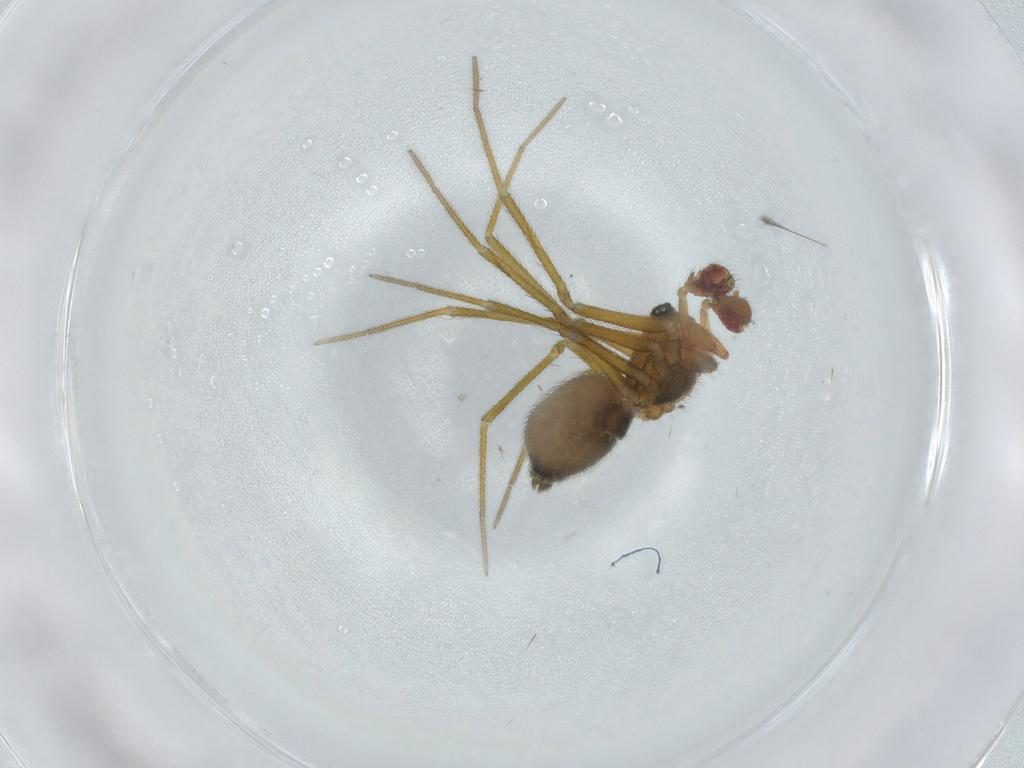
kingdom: Animalia
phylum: Arthropoda
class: Arachnida
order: Araneae
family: Linyphiidae
